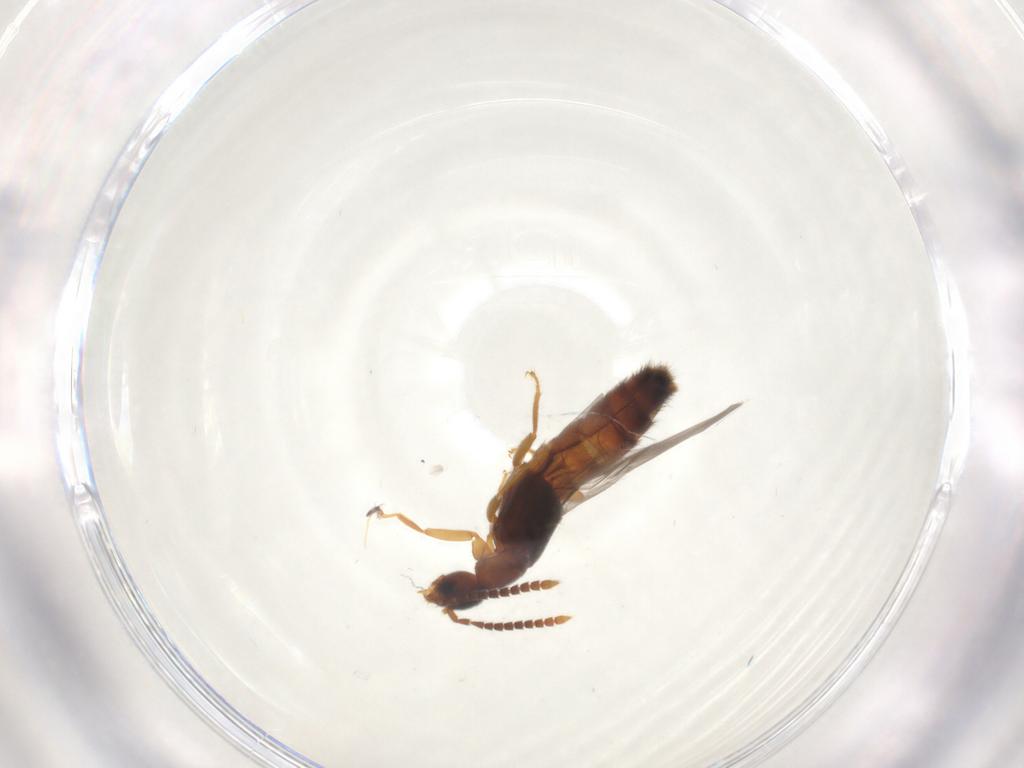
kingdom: Animalia
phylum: Arthropoda
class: Insecta
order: Coleoptera
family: Staphylinidae
